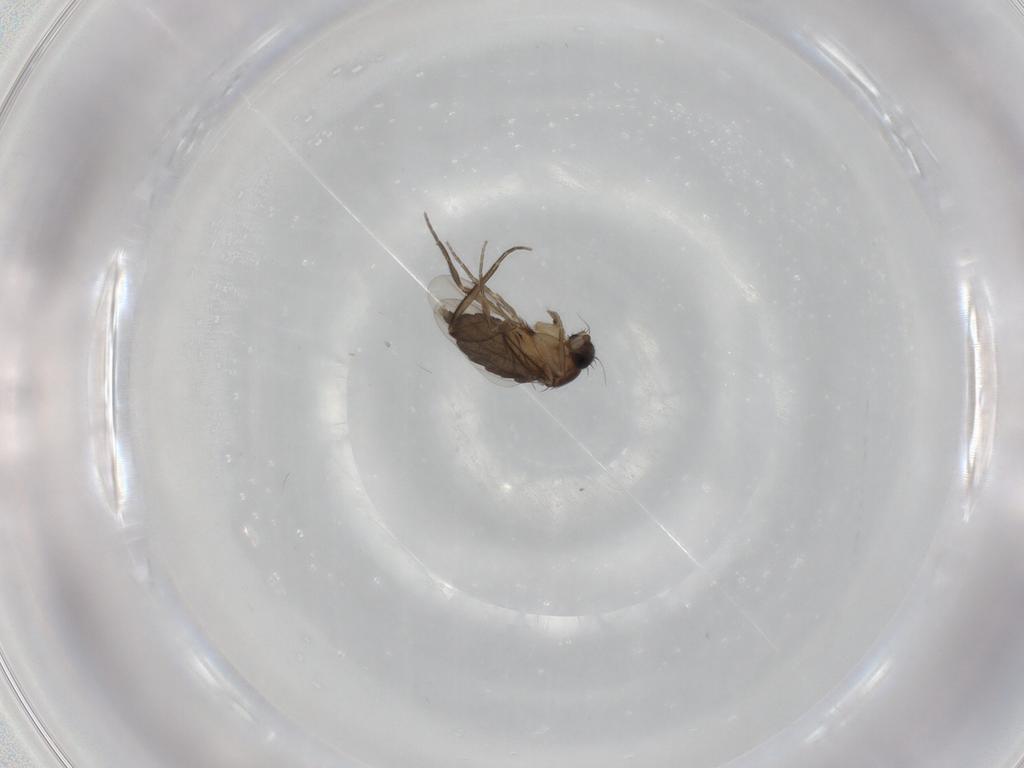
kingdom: Animalia
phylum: Arthropoda
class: Insecta
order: Diptera
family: Phoridae
